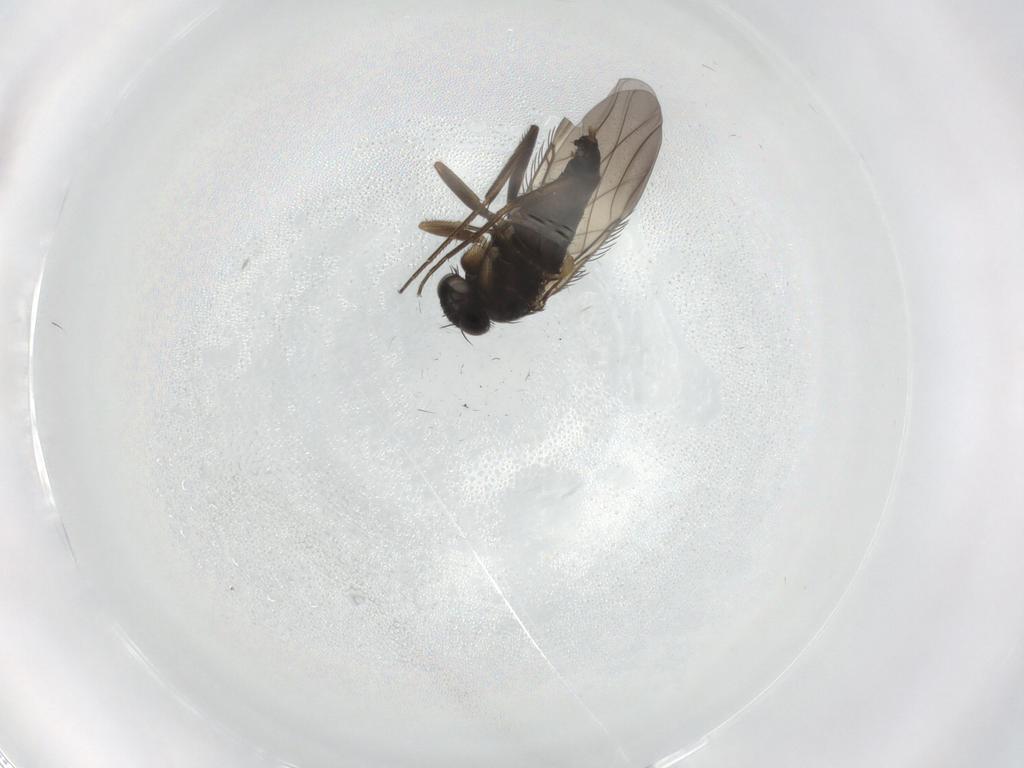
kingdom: Animalia
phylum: Arthropoda
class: Insecta
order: Diptera
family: Phoridae
